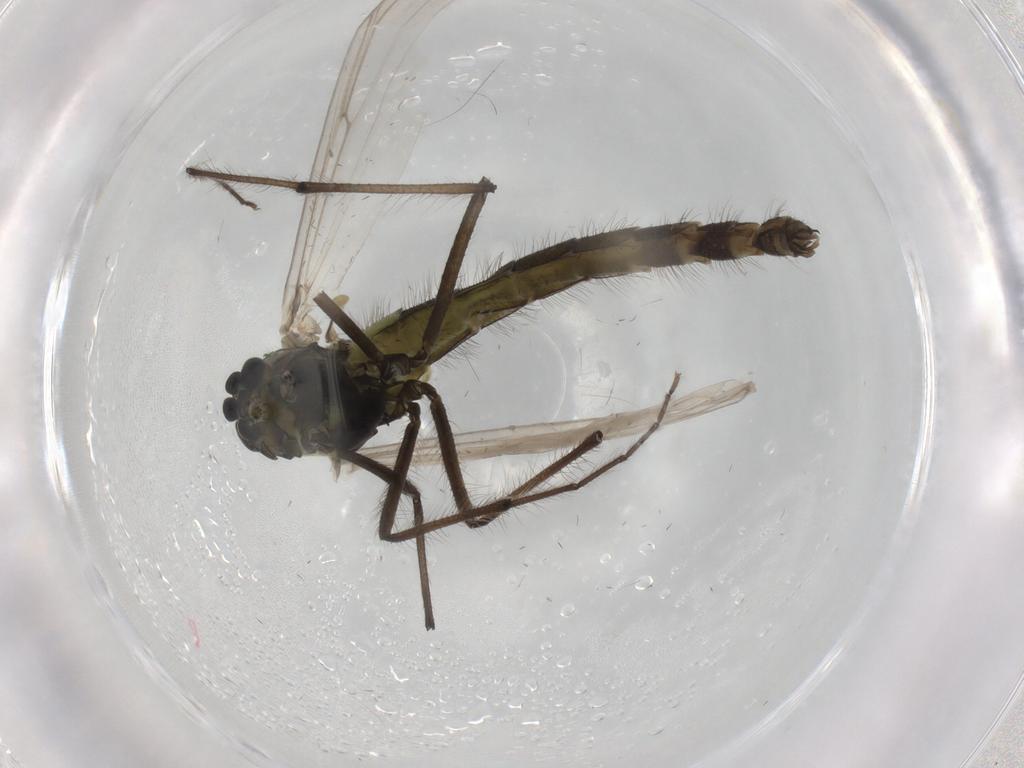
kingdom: Animalia
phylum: Arthropoda
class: Insecta
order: Diptera
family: Chironomidae
